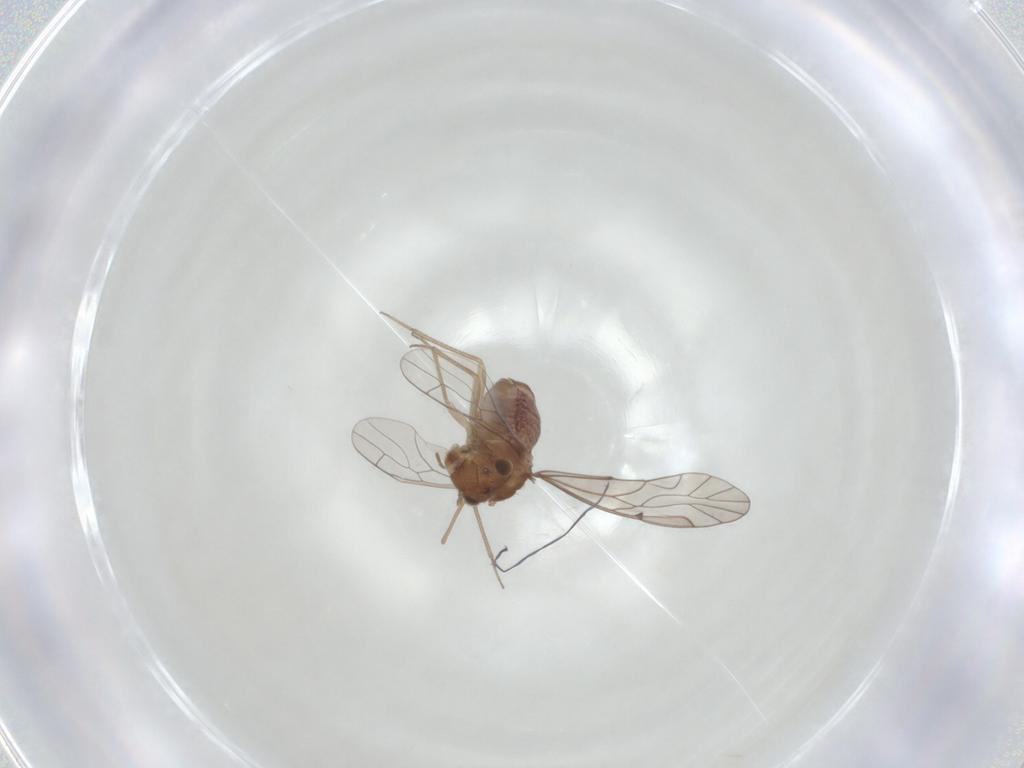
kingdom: Animalia
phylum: Arthropoda
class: Insecta
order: Psocodea
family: Lachesillidae
